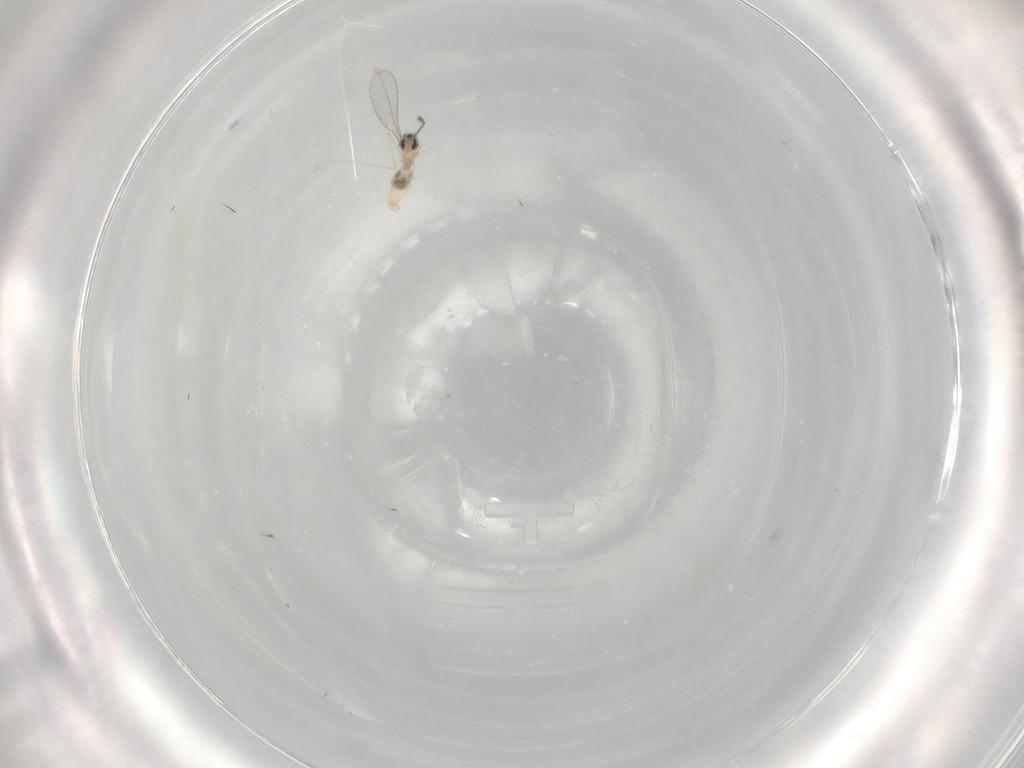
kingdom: Animalia
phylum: Arthropoda
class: Insecta
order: Diptera
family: Cecidomyiidae
